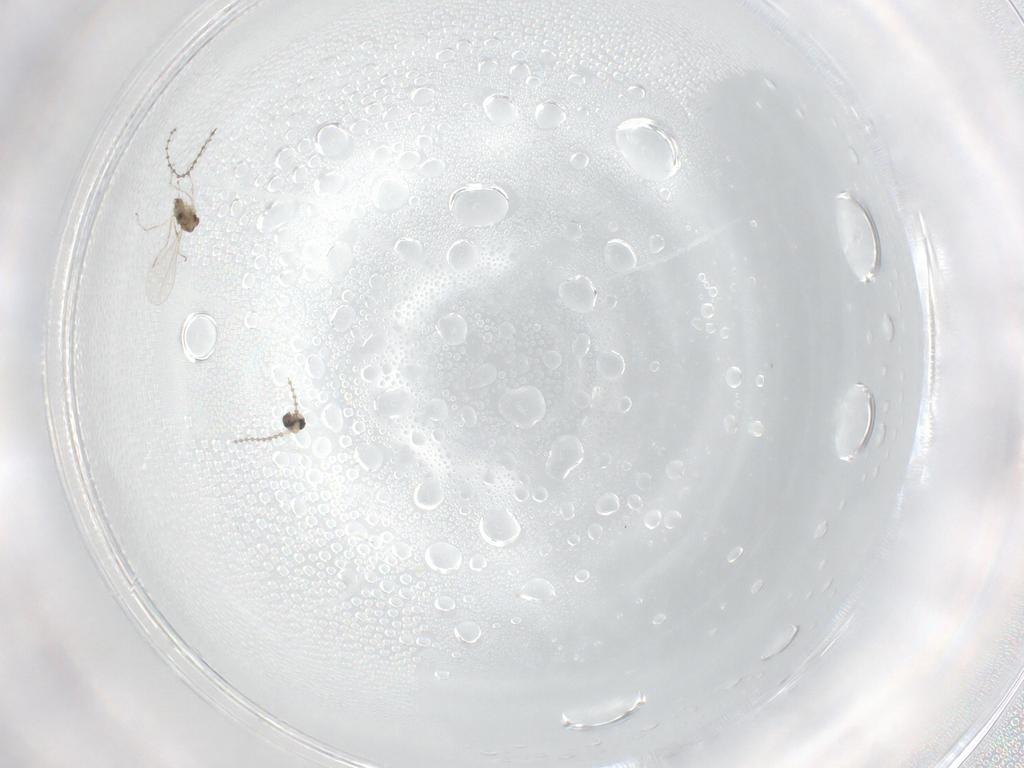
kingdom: Animalia
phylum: Arthropoda
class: Insecta
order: Diptera
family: Cecidomyiidae
